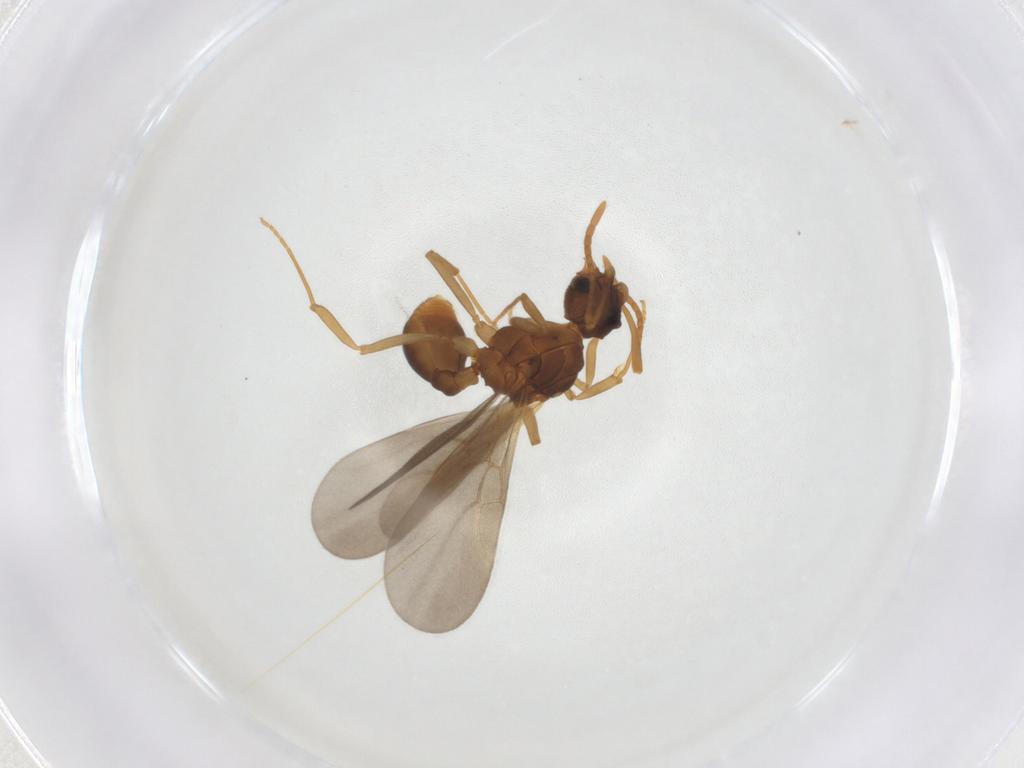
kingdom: Animalia
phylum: Arthropoda
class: Insecta
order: Hymenoptera
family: Formicidae
